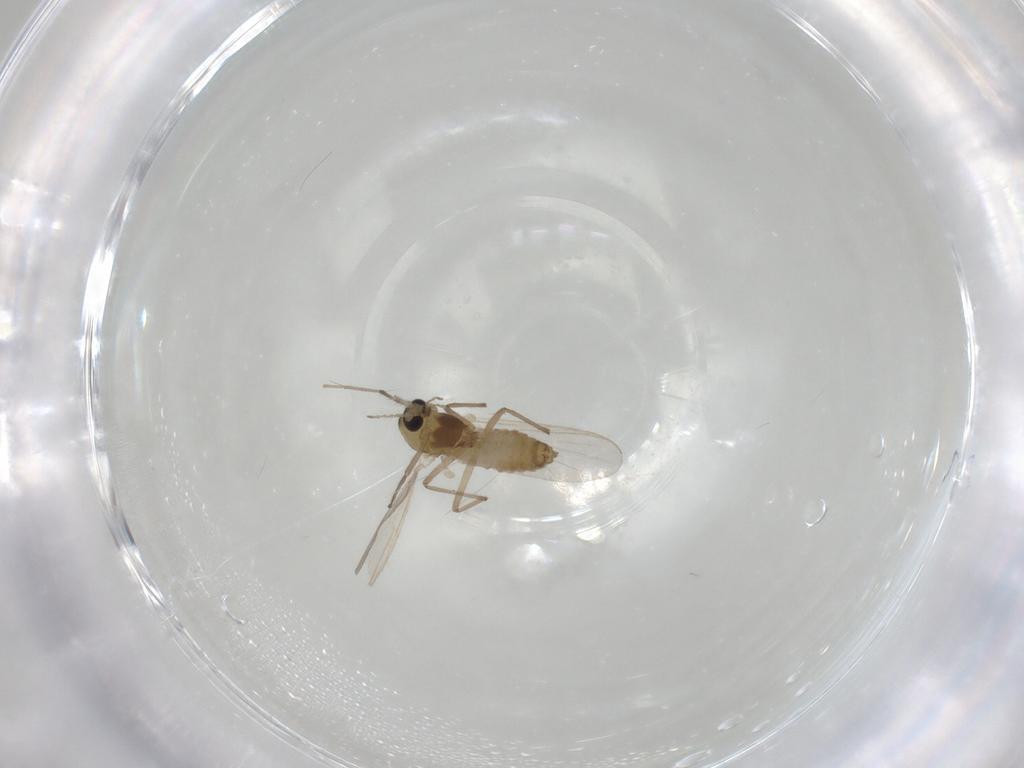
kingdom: Animalia
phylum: Arthropoda
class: Insecta
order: Diptera
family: Chironomidae
